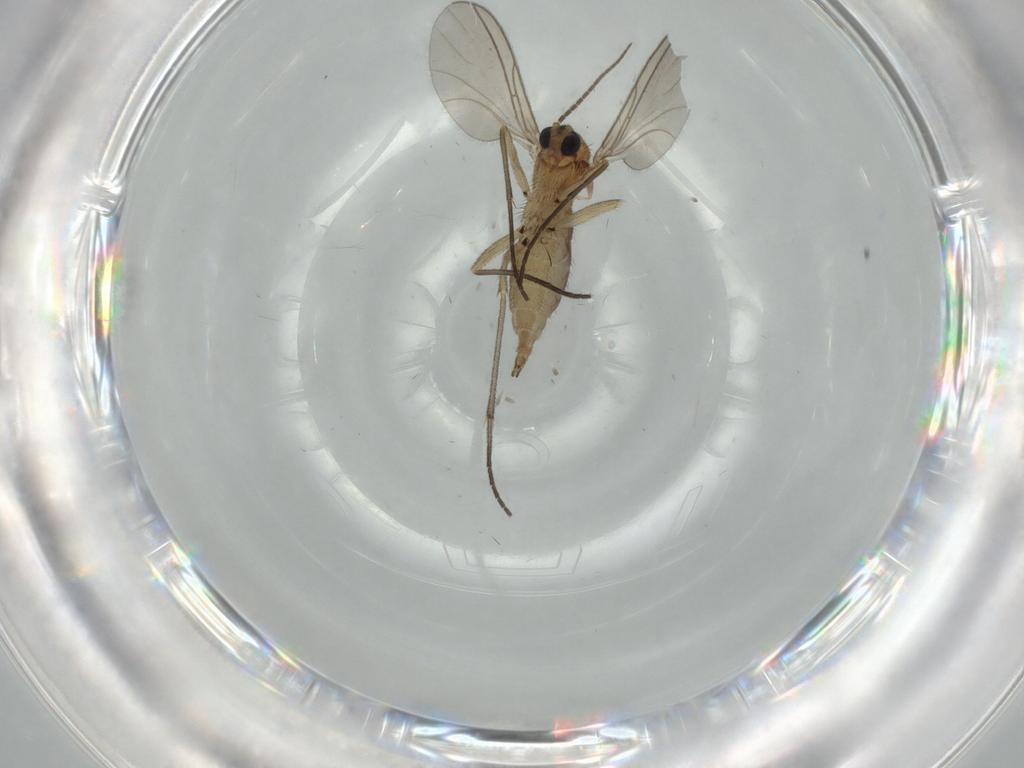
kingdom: Animalia
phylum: Arthropoda
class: Insecta
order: Diptera
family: Sciaridae
